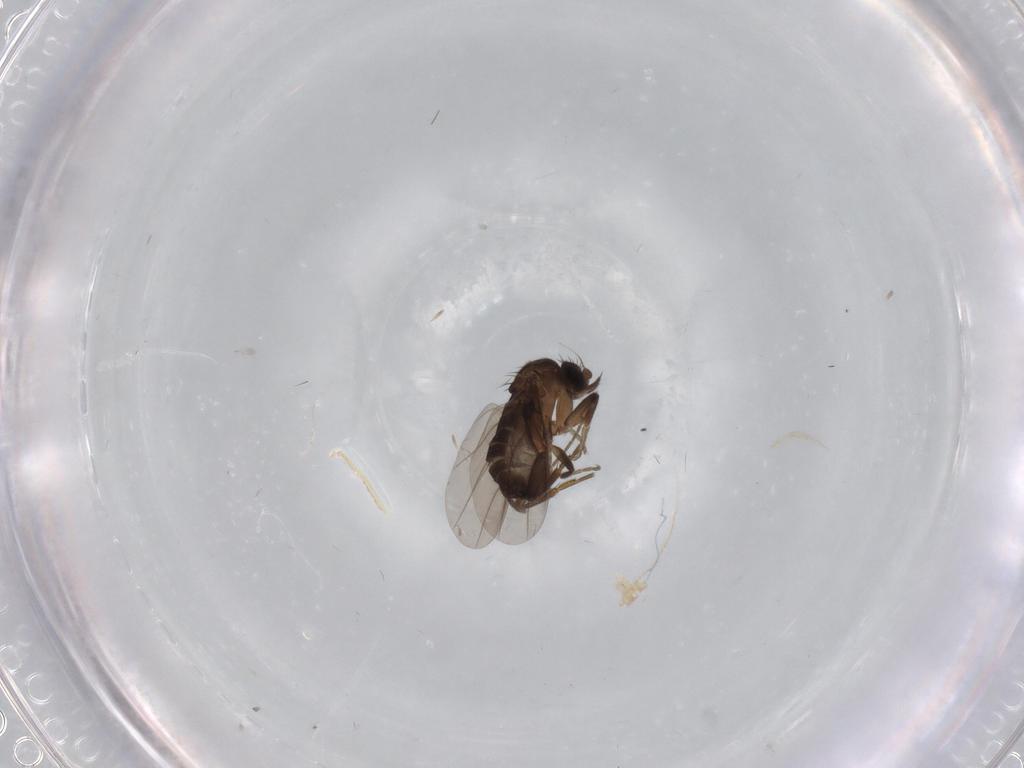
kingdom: Animalia
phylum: Arthropoda
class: Insecta
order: Diptera
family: Phoridae
